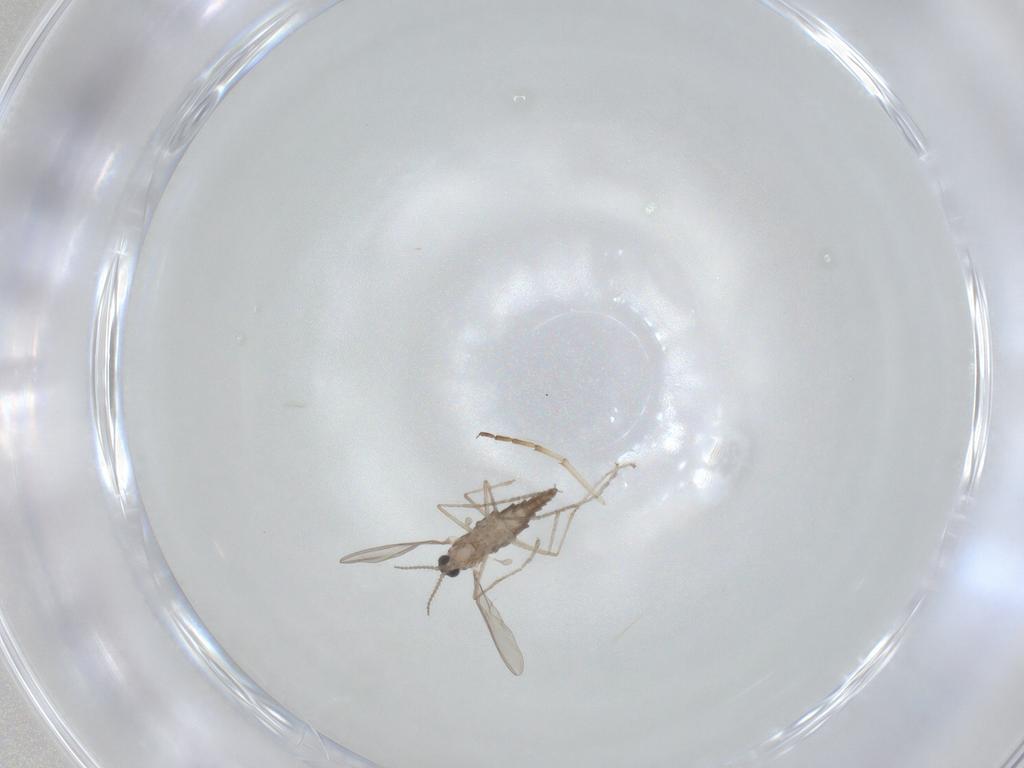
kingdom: Animalia
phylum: Arthropoda
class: Insecta
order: Diptera
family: Cecidomyiidae
